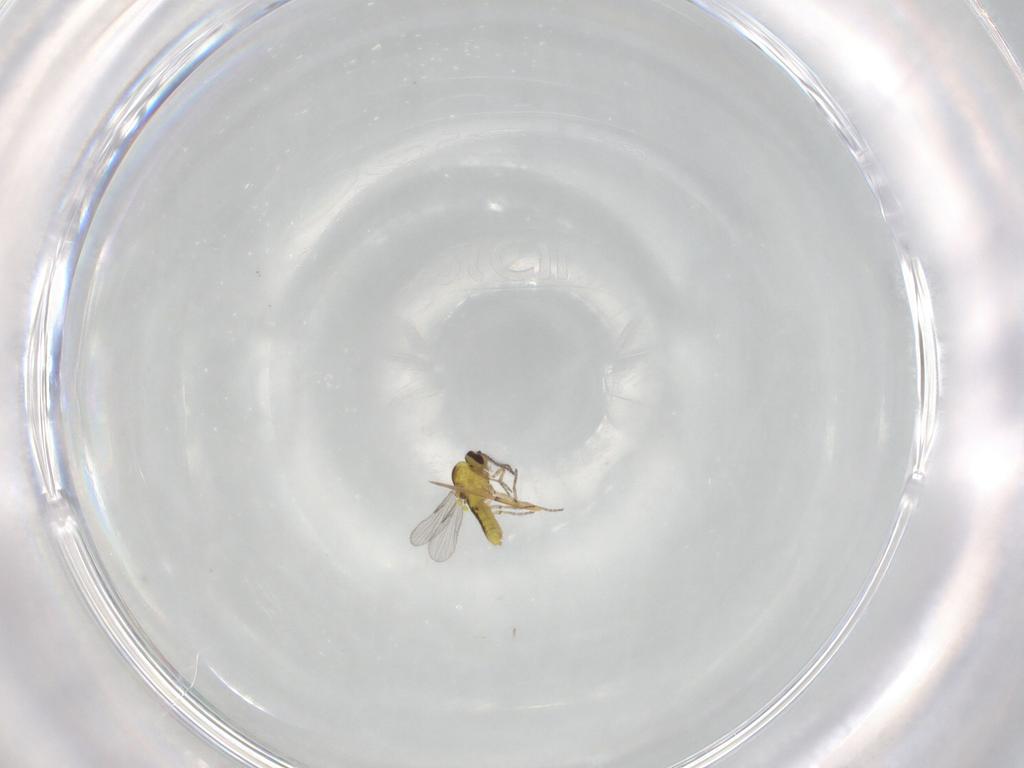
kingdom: Animalia
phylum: Arthropoda
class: Insecta
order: Diptera
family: Ceratopogonidae
